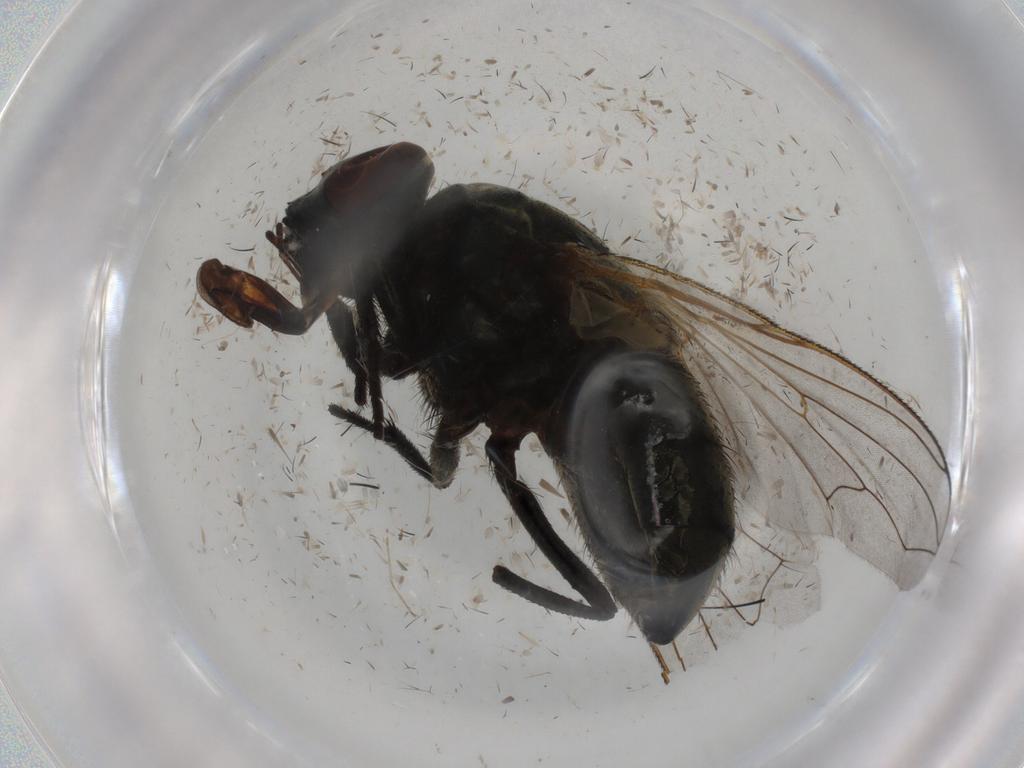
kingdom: Animalia
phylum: Arthropoda
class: Insecta
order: Diptera
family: Muscidae
